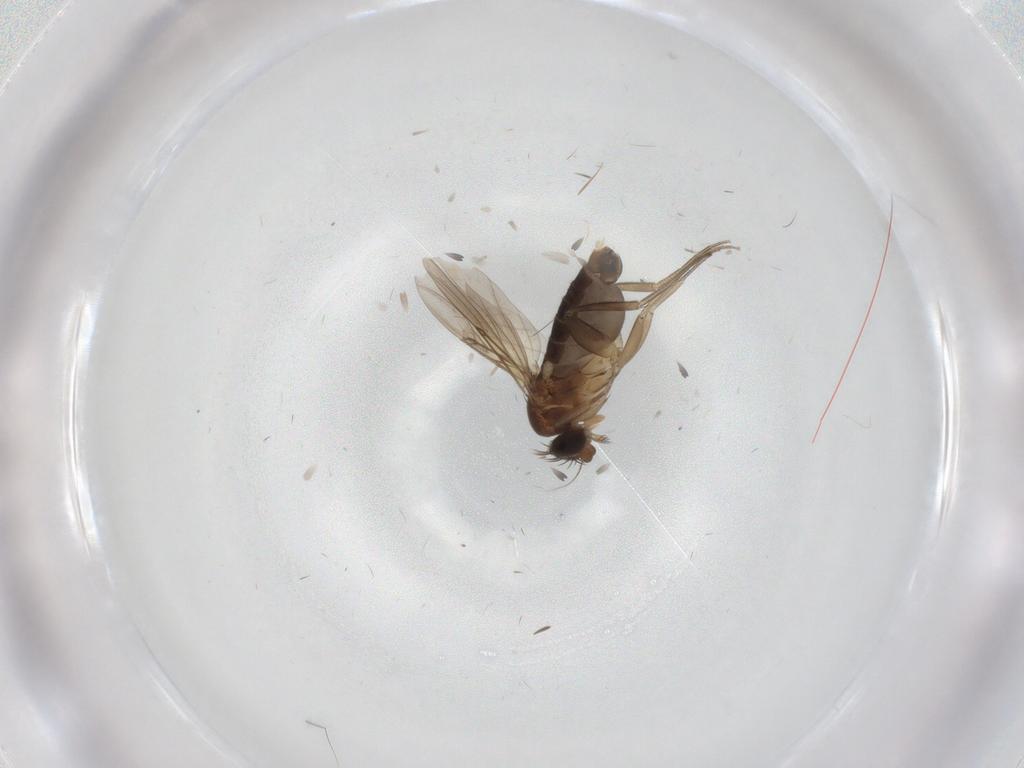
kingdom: Animalia
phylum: Arthropoda
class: Insecta
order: Diptera
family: Phoridae
